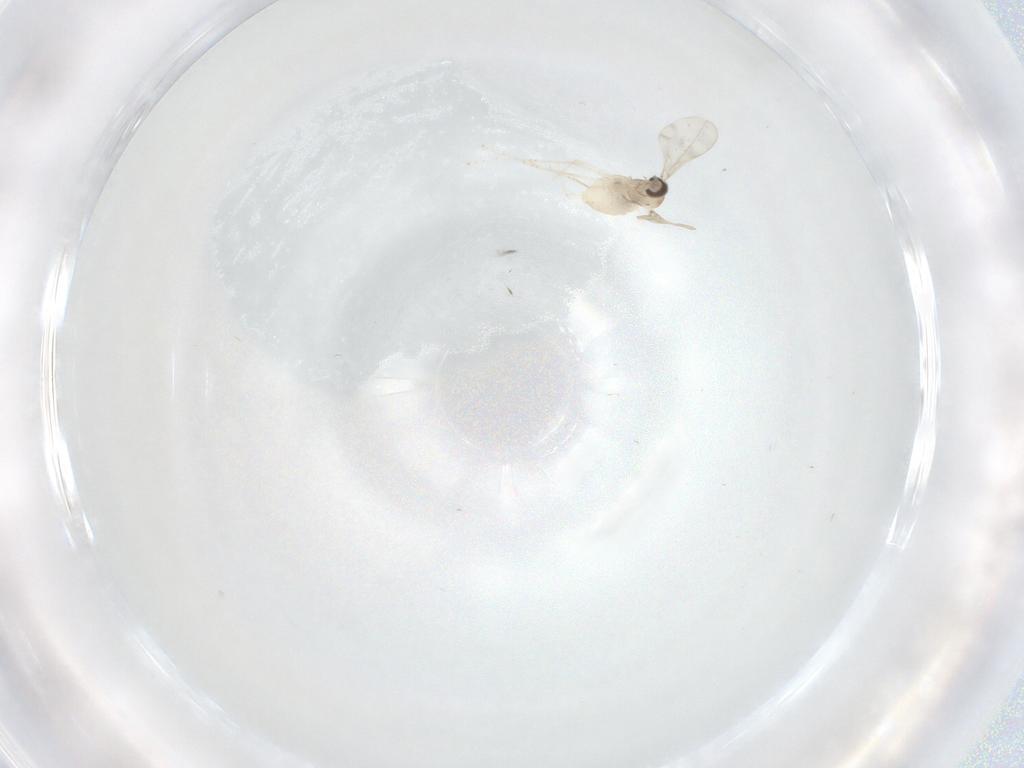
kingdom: Animalia
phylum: Arthropoda
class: Insecta
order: Diptera
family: Cecidomyiidae
